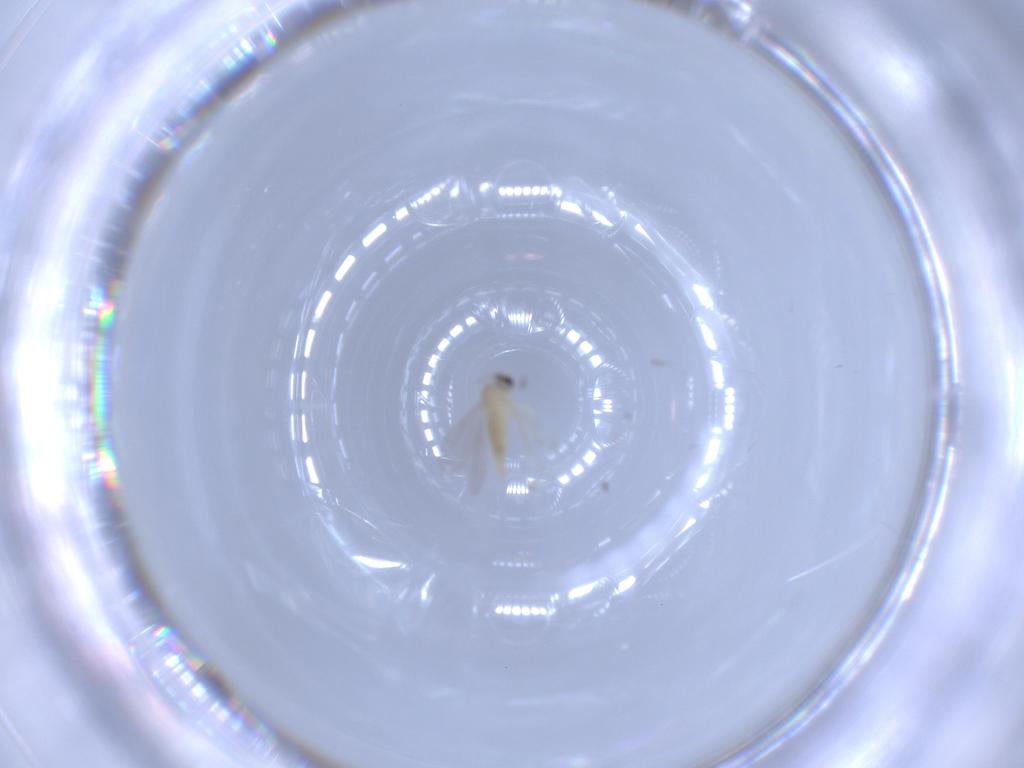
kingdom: Animalia
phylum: Arthropoda
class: Insecta
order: Diptera
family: Cecidomyiidae
